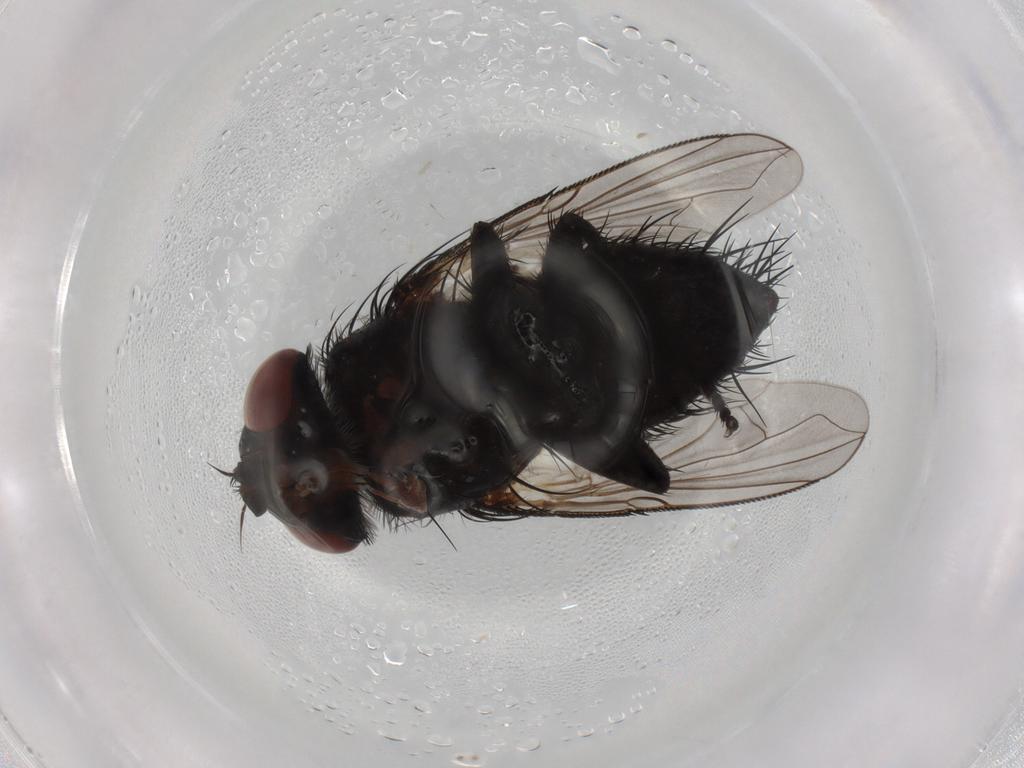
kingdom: Animalia
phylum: Arthropoda
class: Insecta
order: Diptera
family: Tachinidae
